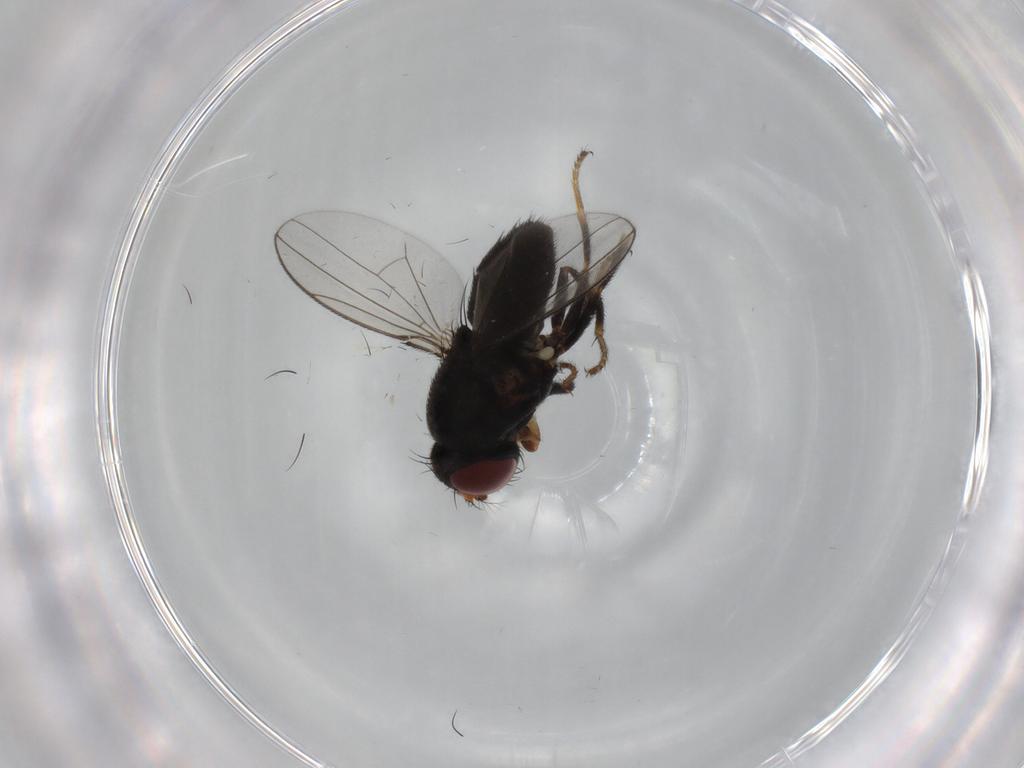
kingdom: Animalia
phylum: Arthropoda
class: Insecta
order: Diptera
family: Ephydridae
